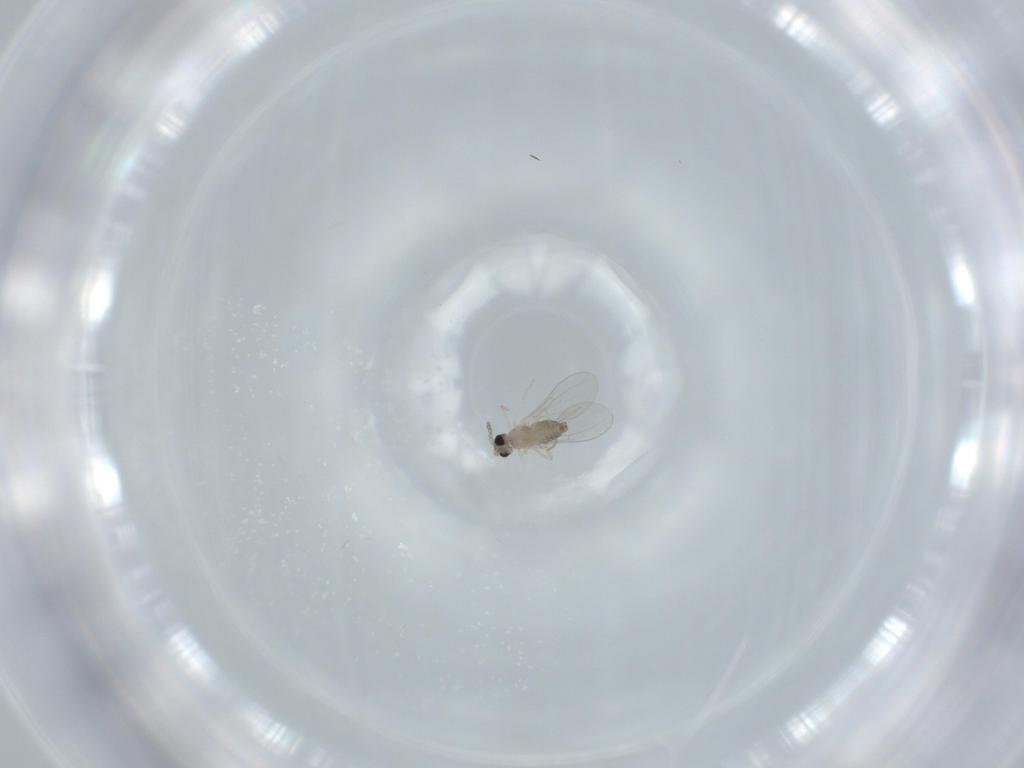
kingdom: Animalia
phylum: Arthropoda
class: Insecta
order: Diptera
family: Cecidomyiidae
